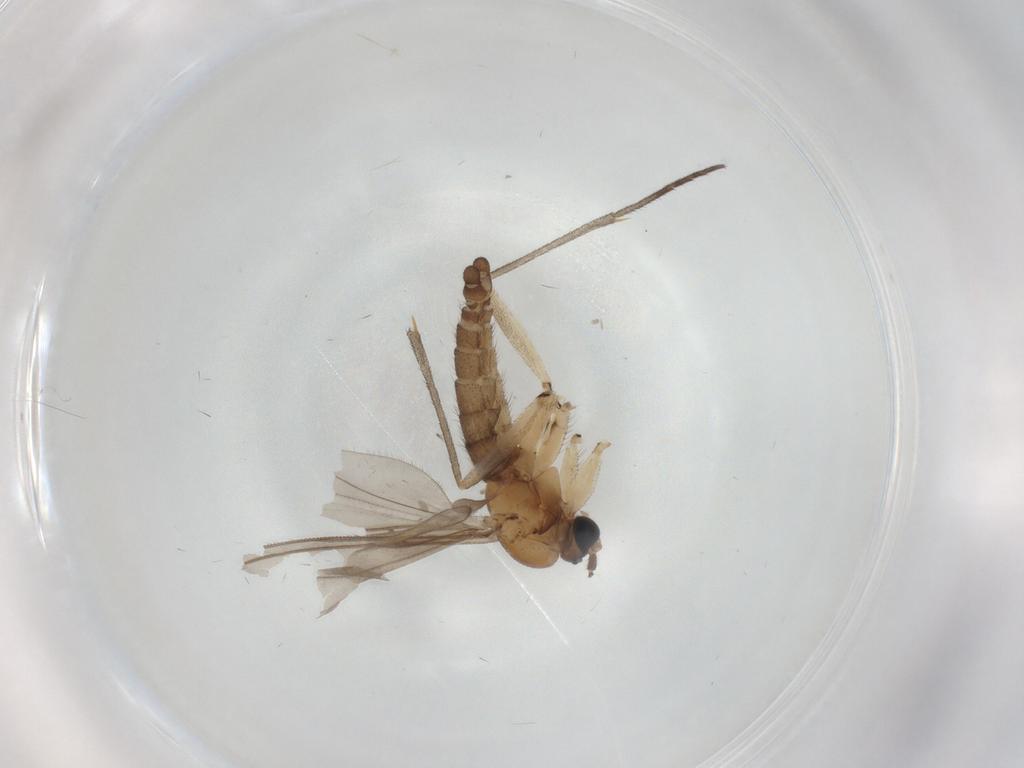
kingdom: Animalia
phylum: Arthropoda
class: Insecta
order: Diptera
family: Sciaridae
